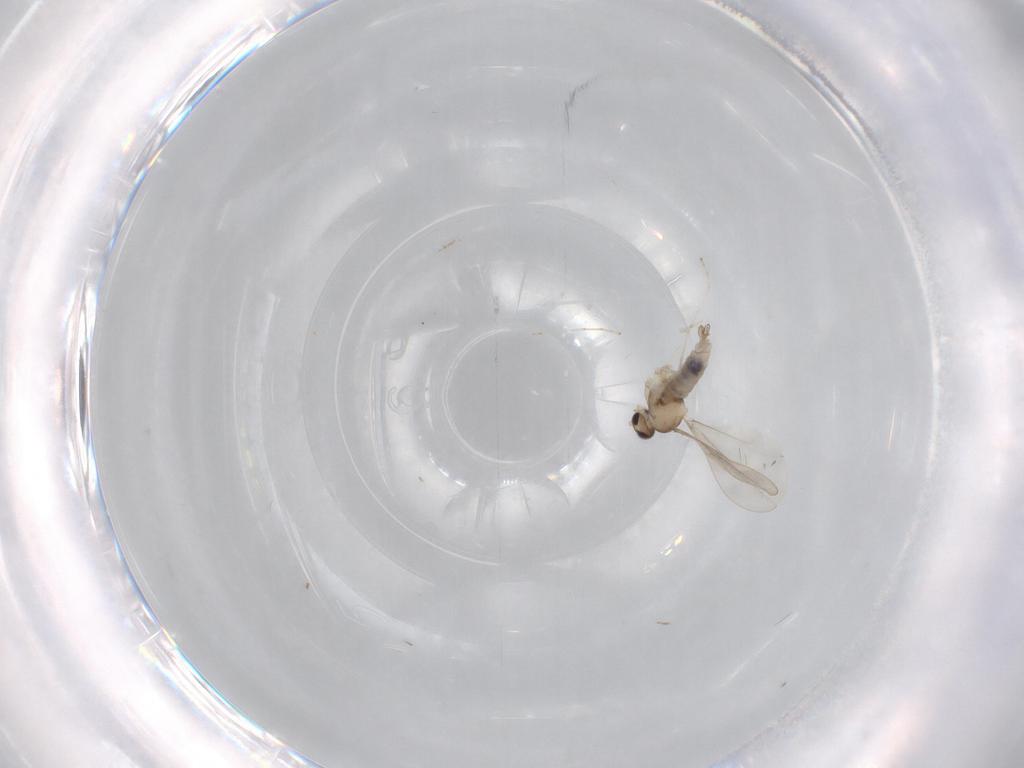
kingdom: Animalia
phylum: Arthropoda
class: Insecta
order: Diptera
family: Cecidomyiidae
